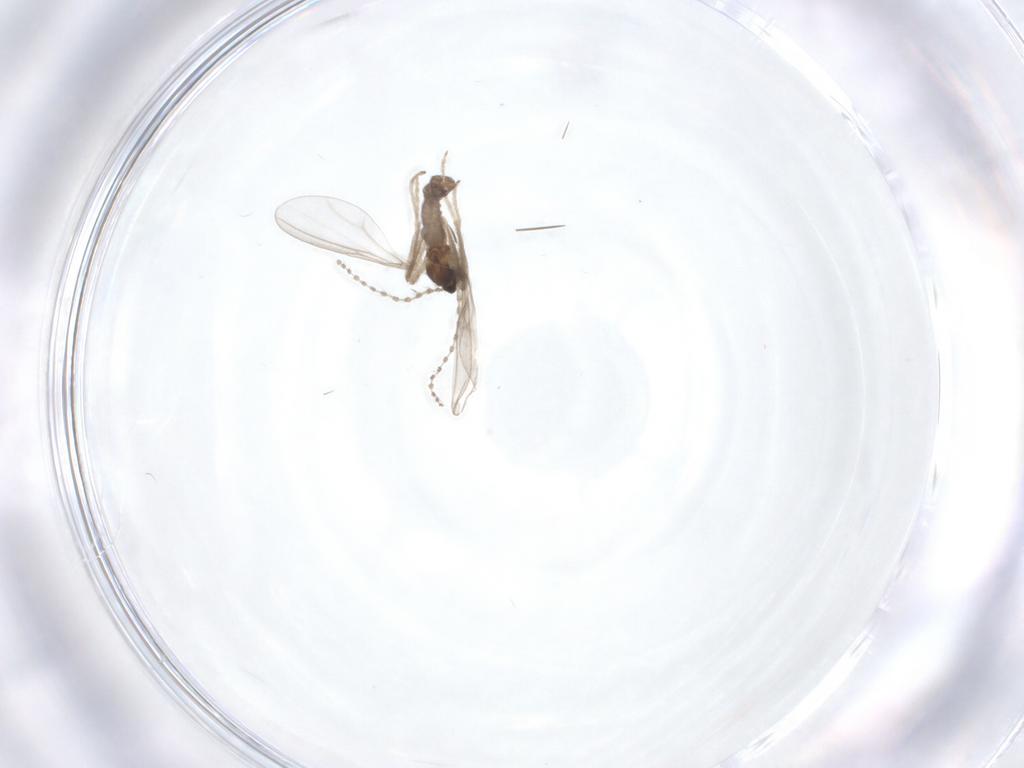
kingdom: Animalia
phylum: Arthropoda
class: Insecta
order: Diptera
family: Cecidomyiidae
